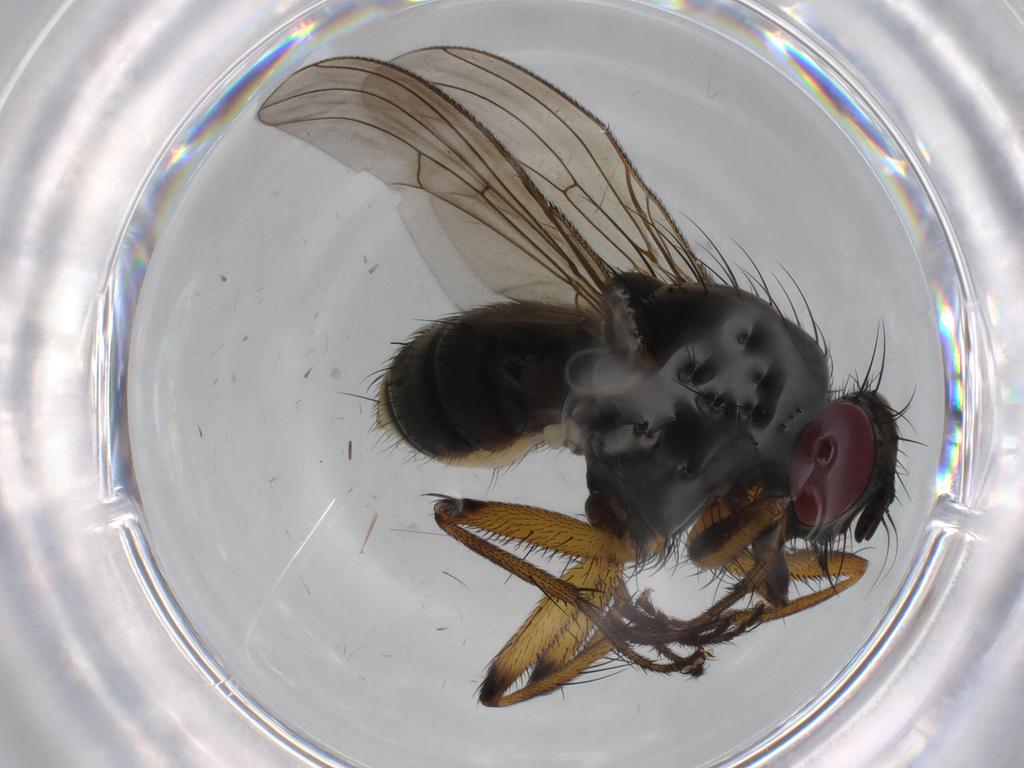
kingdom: Animalia
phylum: Arthropoda
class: Insecta
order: Diptera
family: Muscidae
